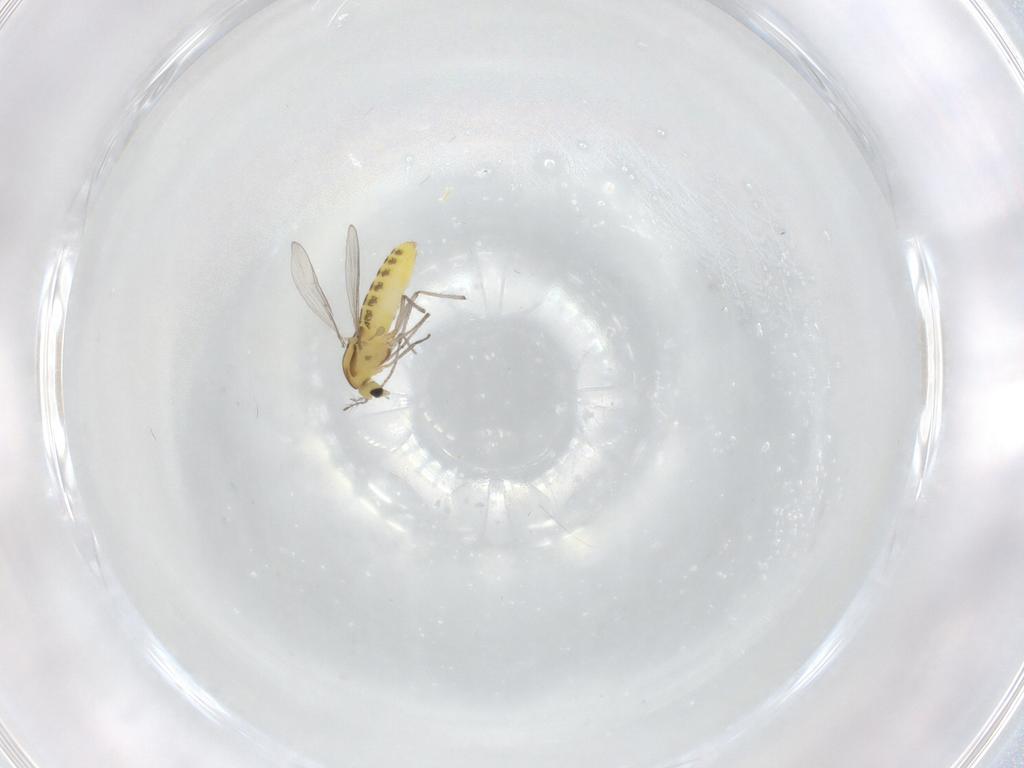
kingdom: Animalia
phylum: Arthropoda
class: Insecta
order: Diptera
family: Chironomidae
